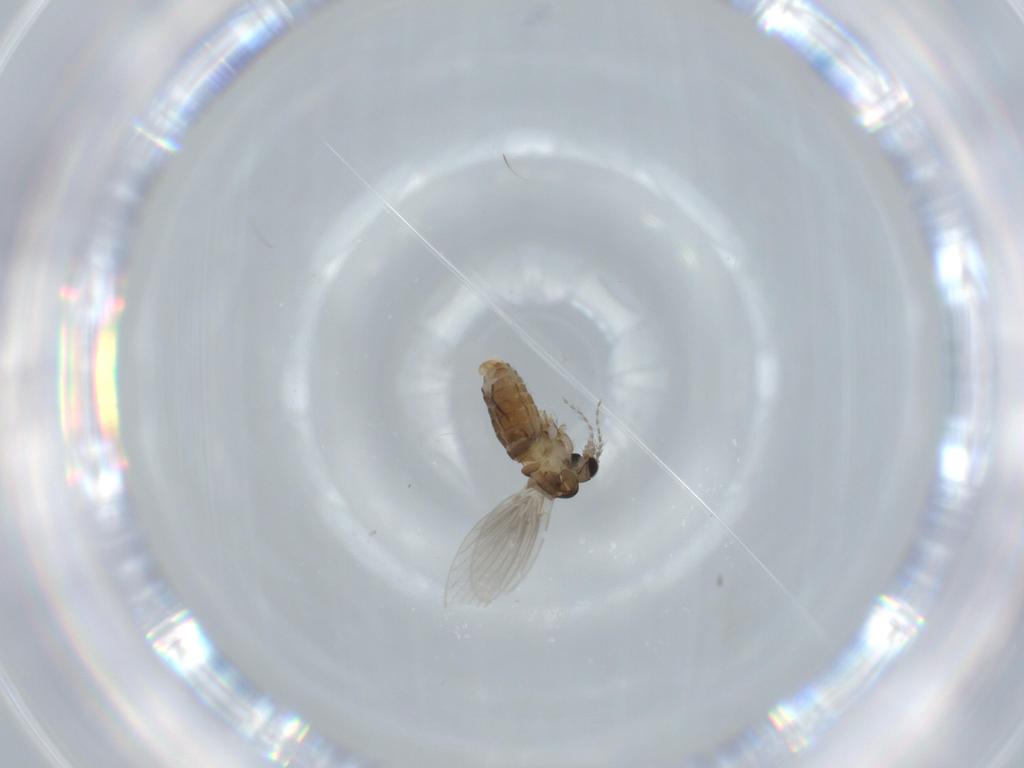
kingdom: Animalia
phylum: Arthropoda
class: Insecta
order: Diptera
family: Psychodidae
